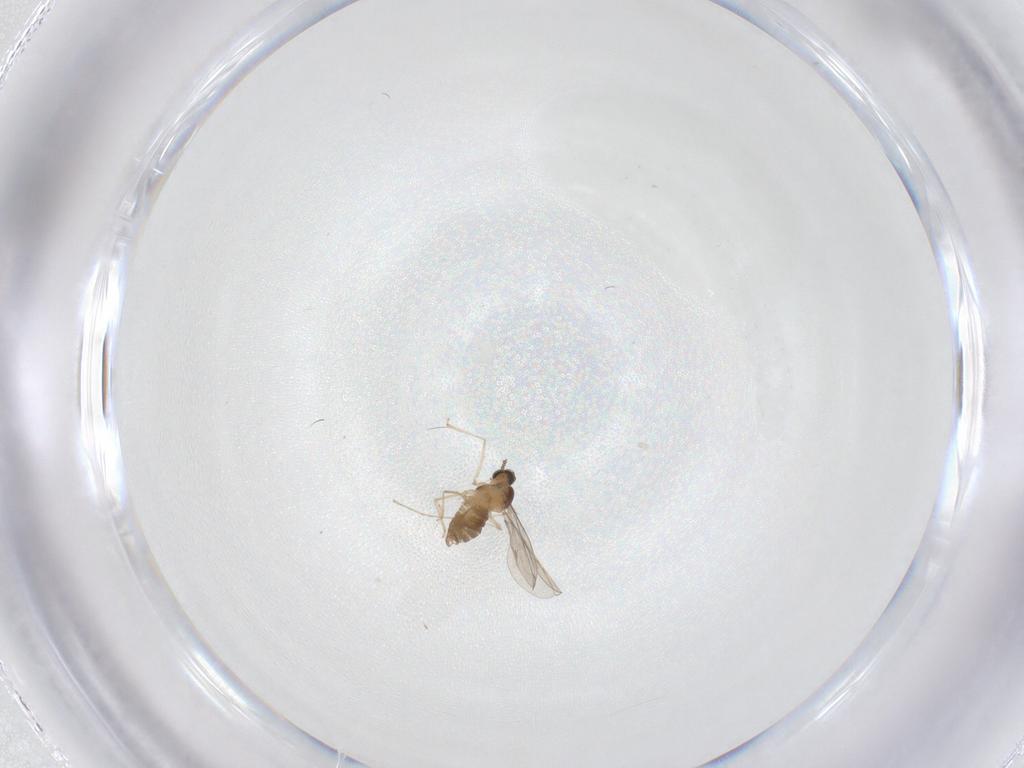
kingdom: Animalia
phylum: Arthropoda
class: Insecta
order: Diptera
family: Cecidomyiidae
